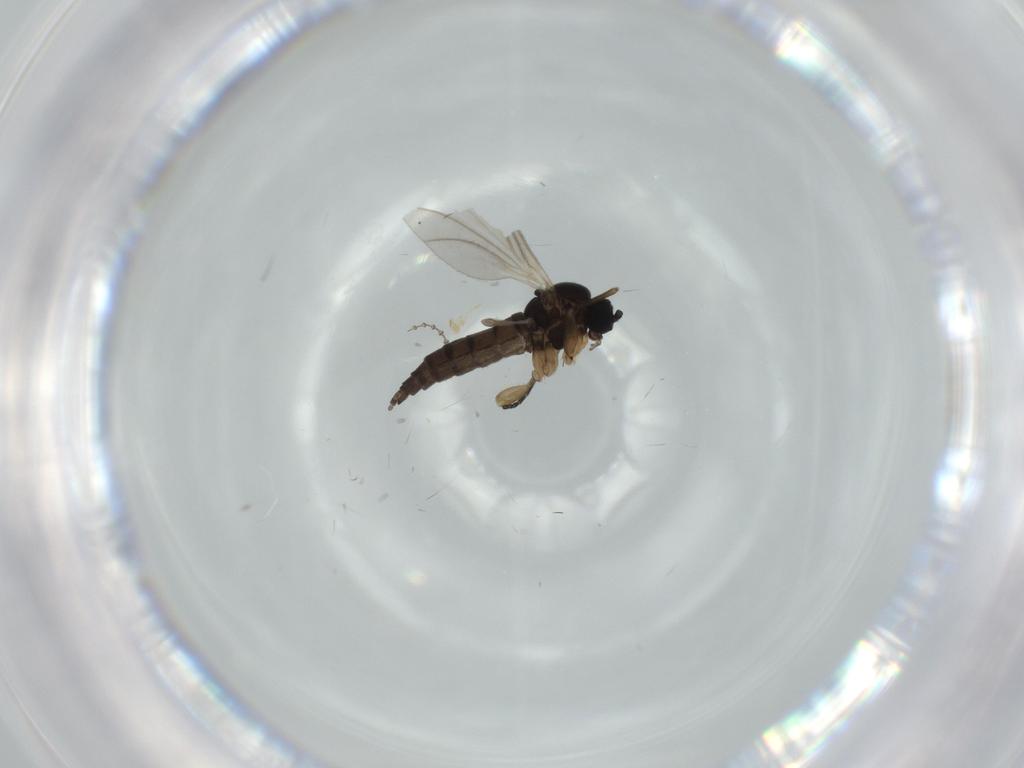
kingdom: Animalia
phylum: Arthropoda
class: Insecta
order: Diptera
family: Sciaridae
